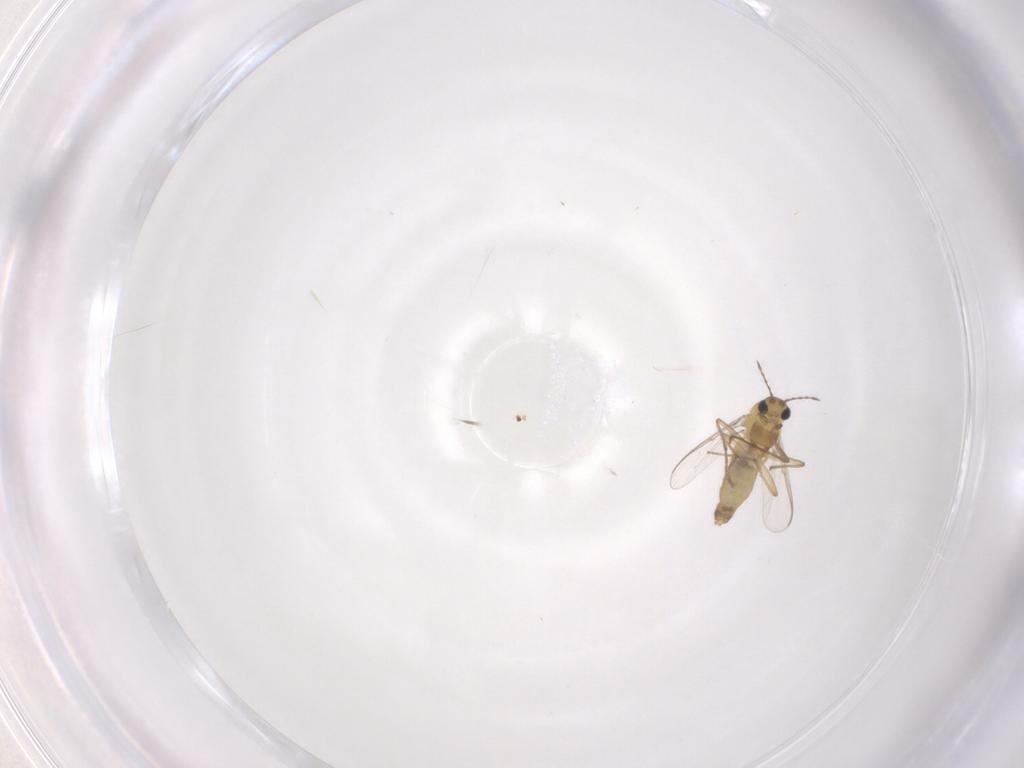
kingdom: Animalia
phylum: Arthropoda
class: Insecta
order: Diptera
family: Chironomidae
